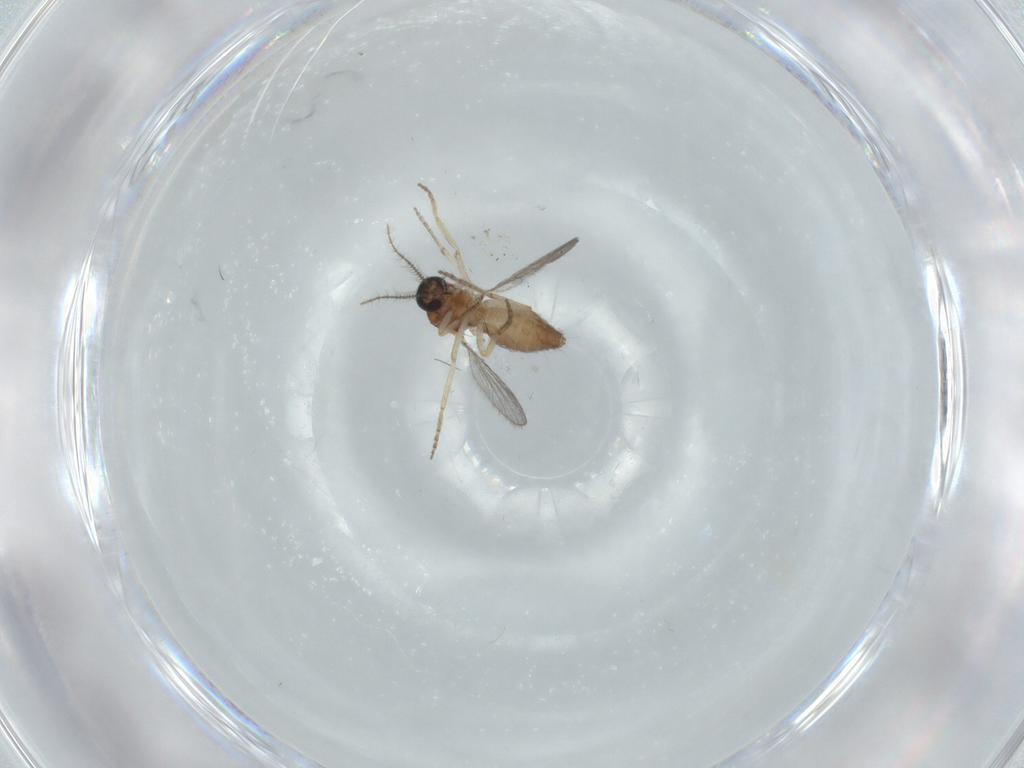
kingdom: Animalia
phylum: Arthropoda
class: Insecta
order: Diptera
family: Ceratopogonidae
